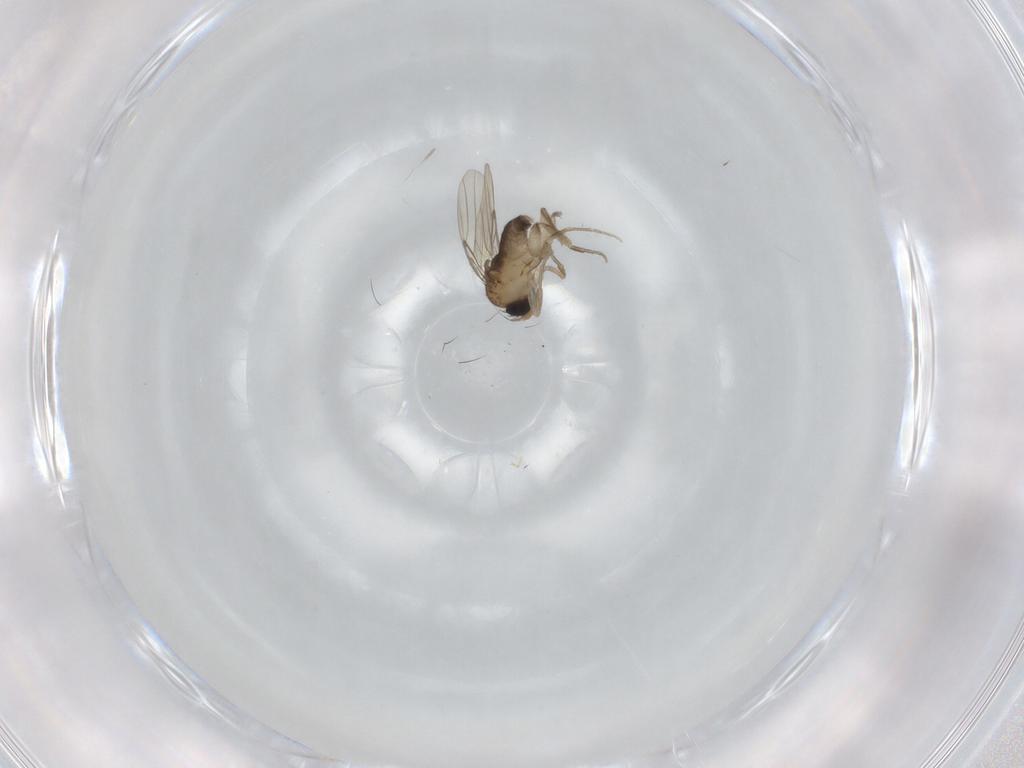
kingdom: Animalia
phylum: Arthropoda
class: Insecta
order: Diptera
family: Phoridae
